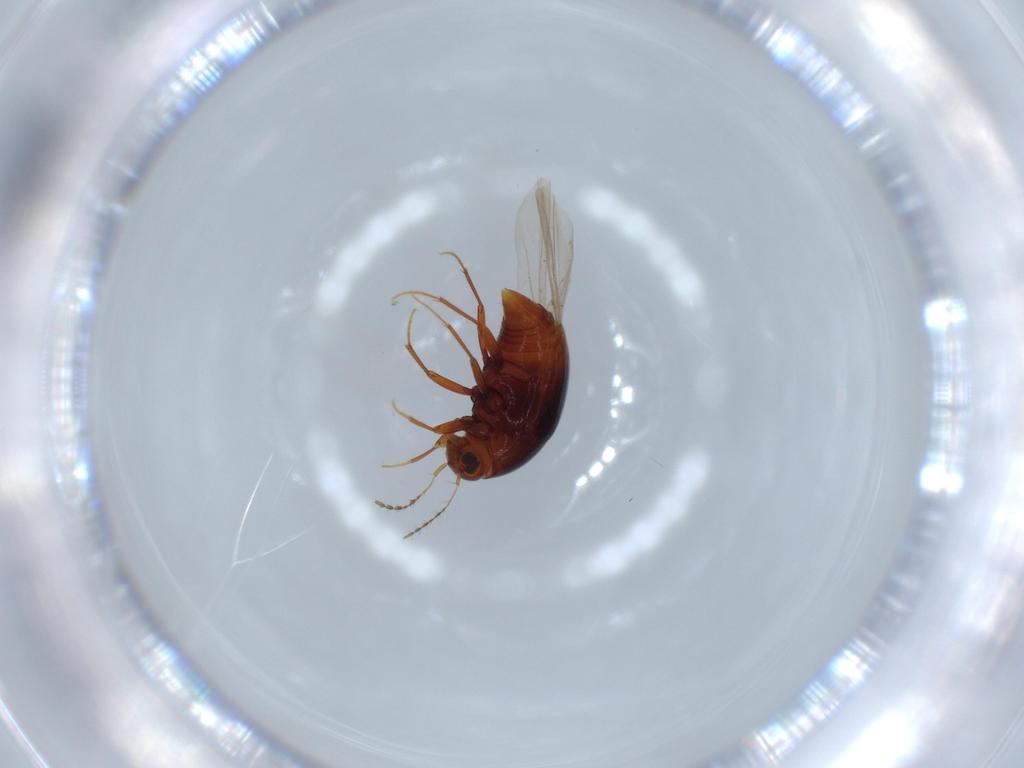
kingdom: Animalia
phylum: Arthropoda
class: Insecta
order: Coleoptera
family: Staphylinidae
